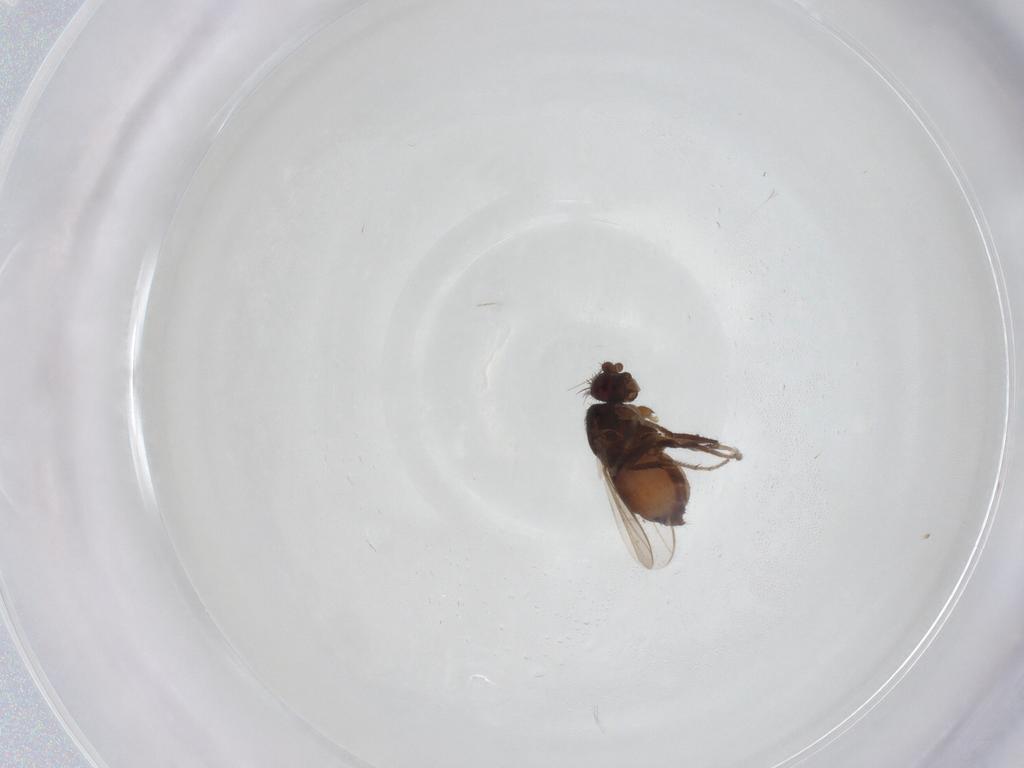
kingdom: Animalia
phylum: Arthropoda
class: Insecta
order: Diptera
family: Sphaeroceridae
